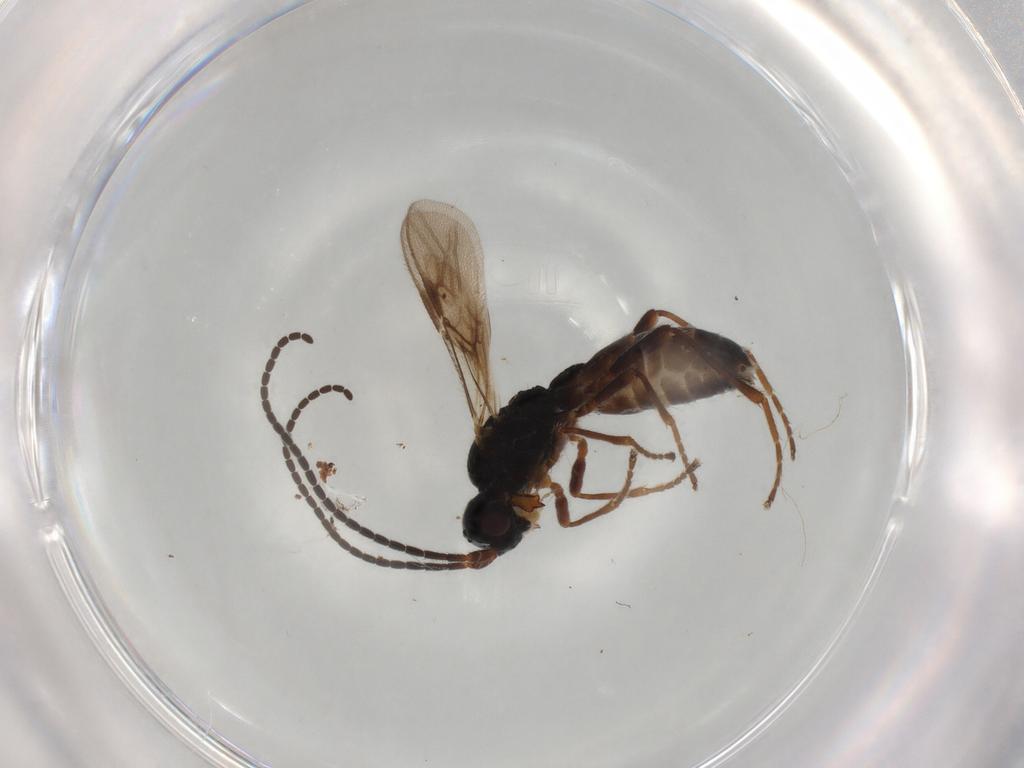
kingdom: Animalia
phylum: Arthropoda
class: Insecta
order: Hymenoptera
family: Braconidae
